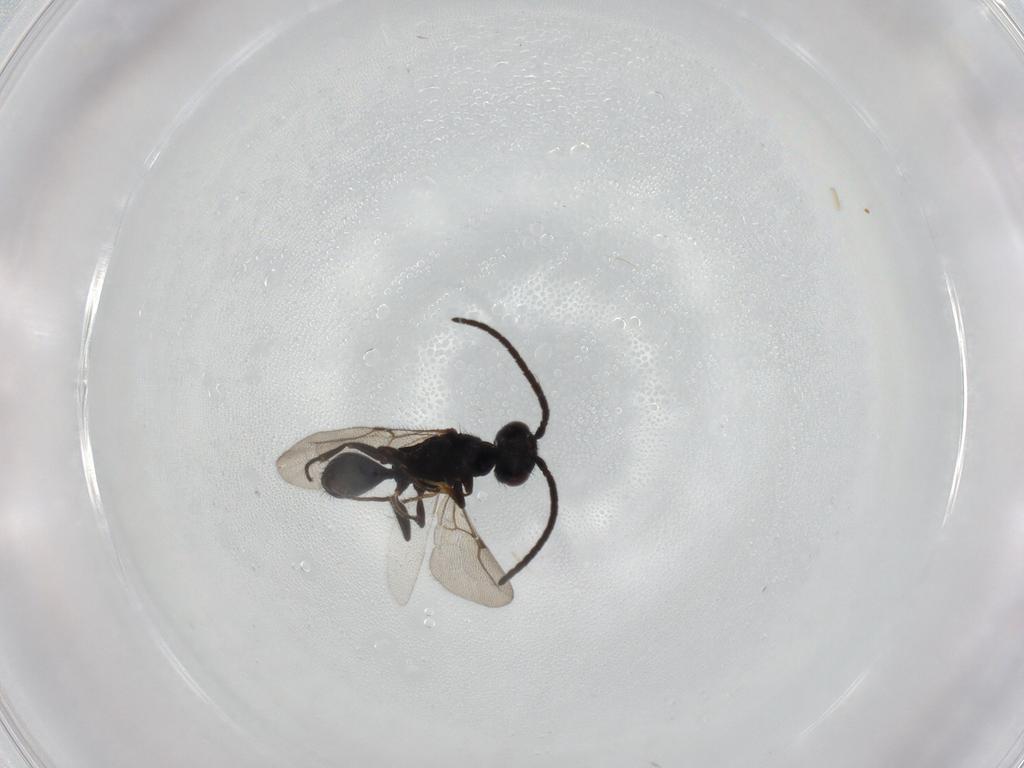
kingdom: Animalia
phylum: Arthropoda
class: Insecta
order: Hymenoptera
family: Bethylidae
